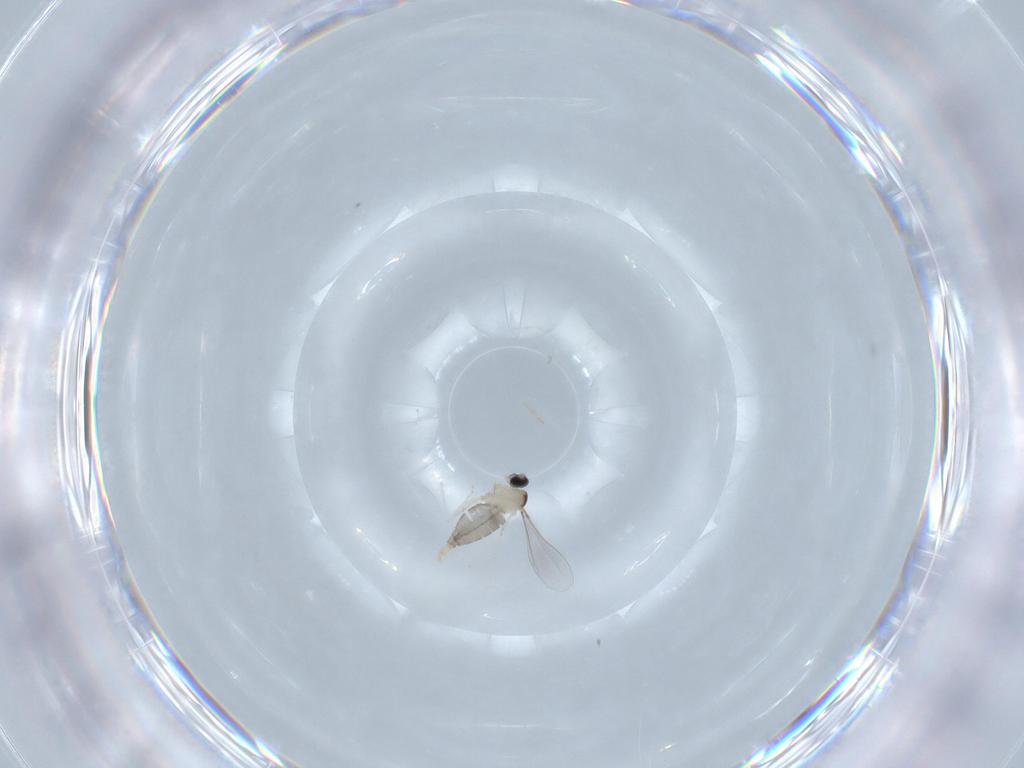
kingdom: Animalia
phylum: Arthropoda
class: Insecta
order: Diptera
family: Cecidomyiidae
